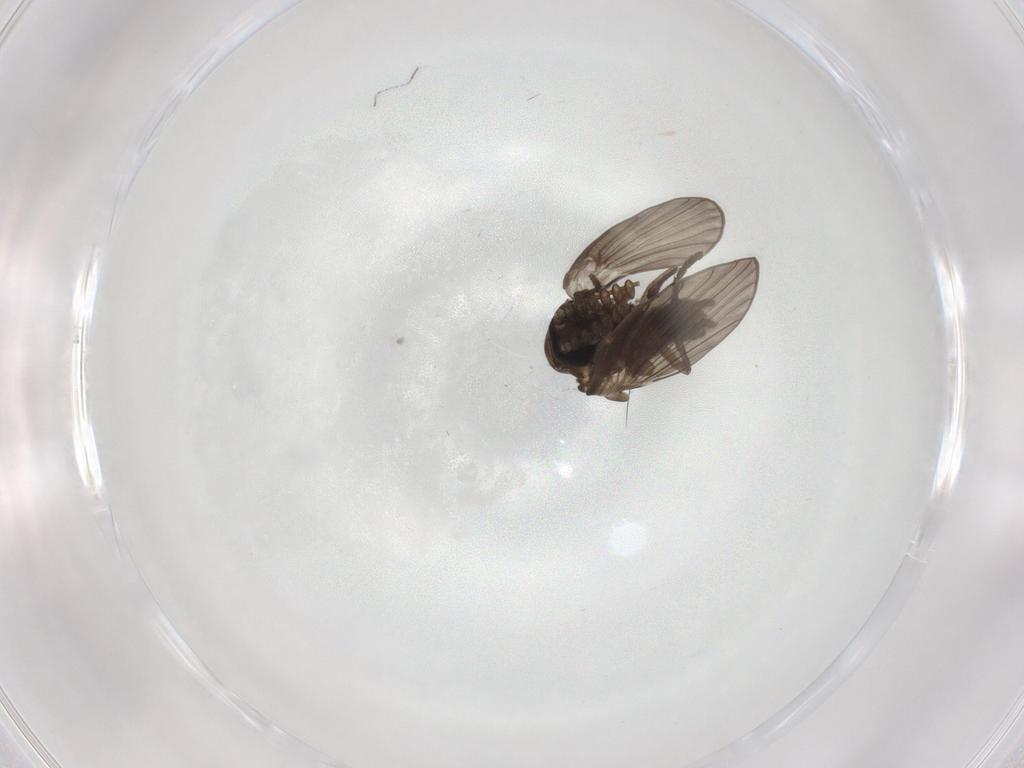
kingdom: Animalia
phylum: Arthropoda
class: Insecta
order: Diptera
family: Psychodidae
